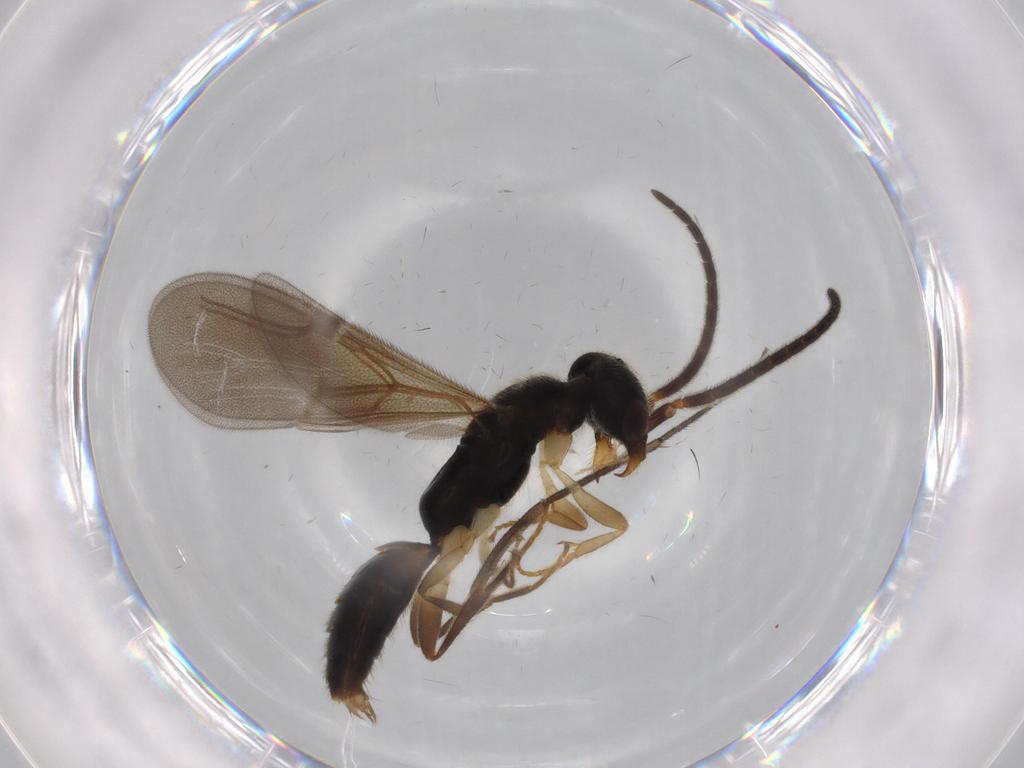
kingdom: Animalia
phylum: Arthropoda
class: Insecta
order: Hymenoptera
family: Bethylidae
